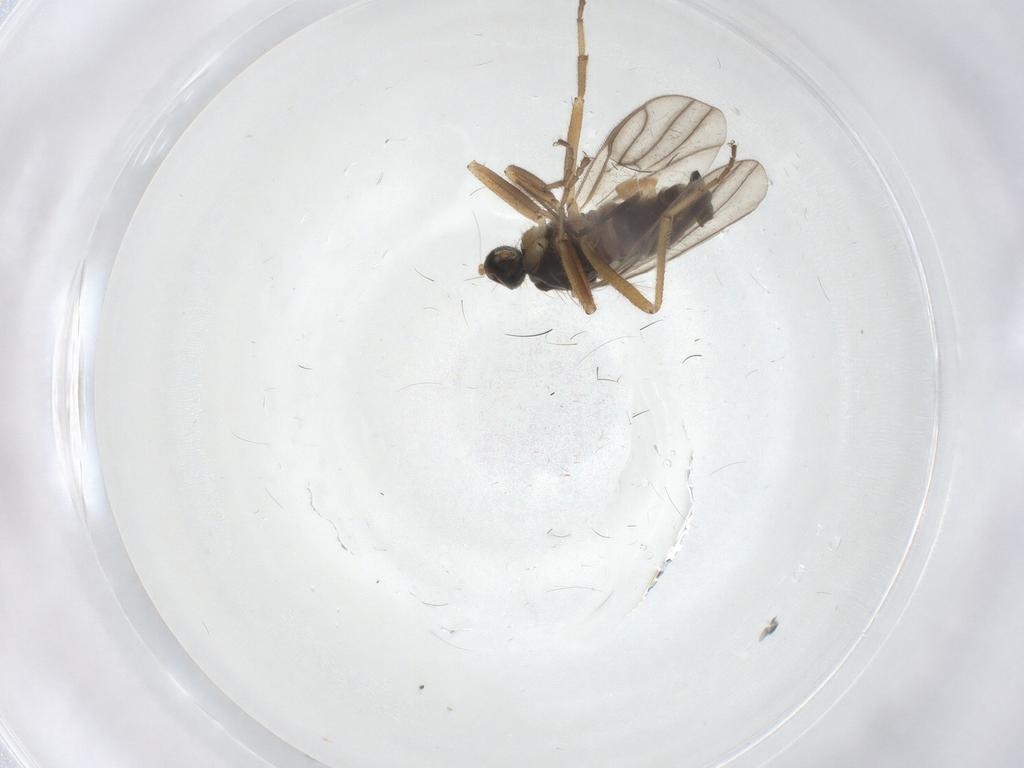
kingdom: Animalia
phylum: Arthropoda
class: Insecta
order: Diptera
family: Hybotidae
